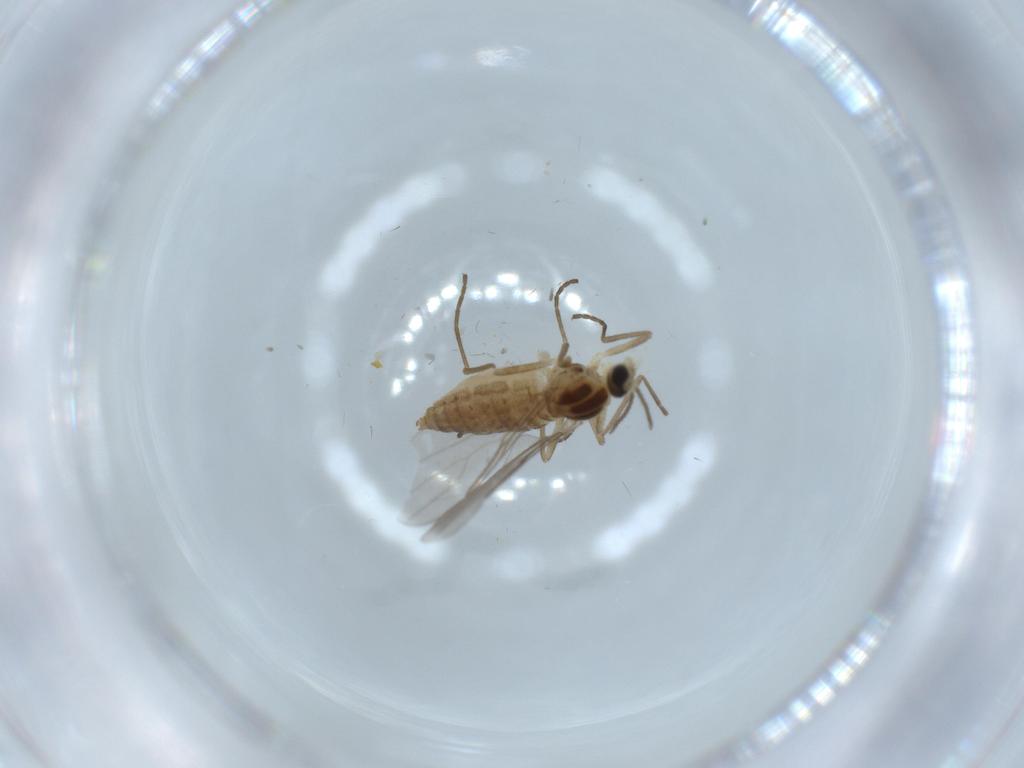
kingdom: Animalia
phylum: Arthropoda
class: Insecta
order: Diptera
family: Cecidomyiidae
